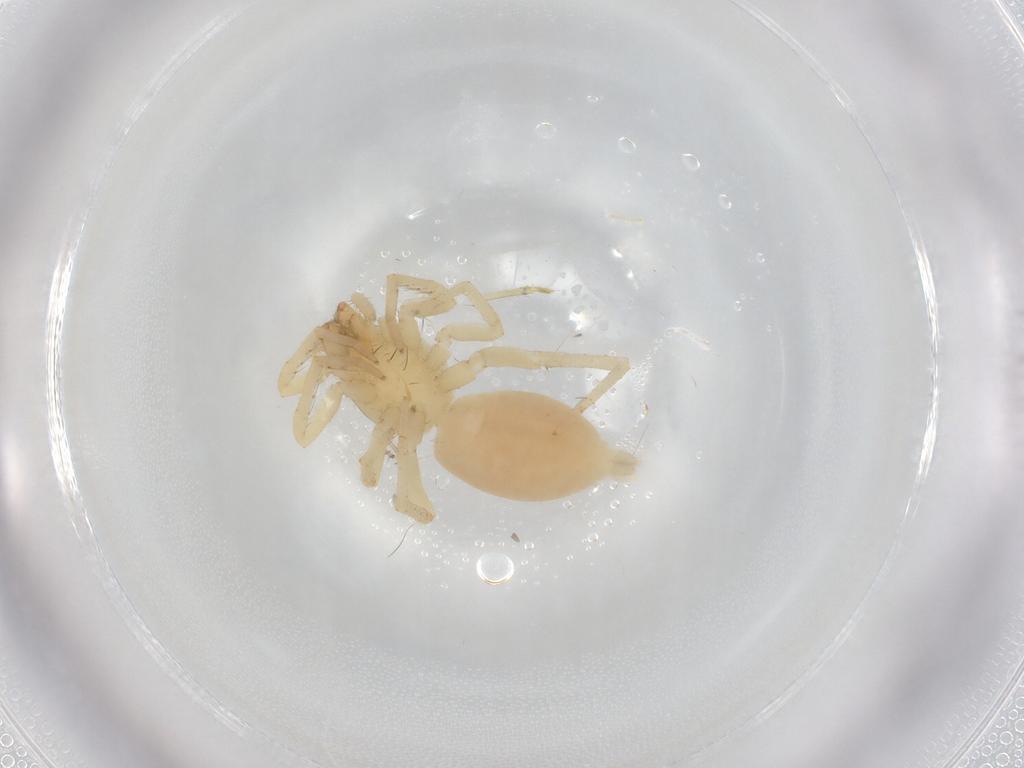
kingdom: Animalia
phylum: Arthropoda
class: Arachnida
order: Araneae
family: Clubionidae
